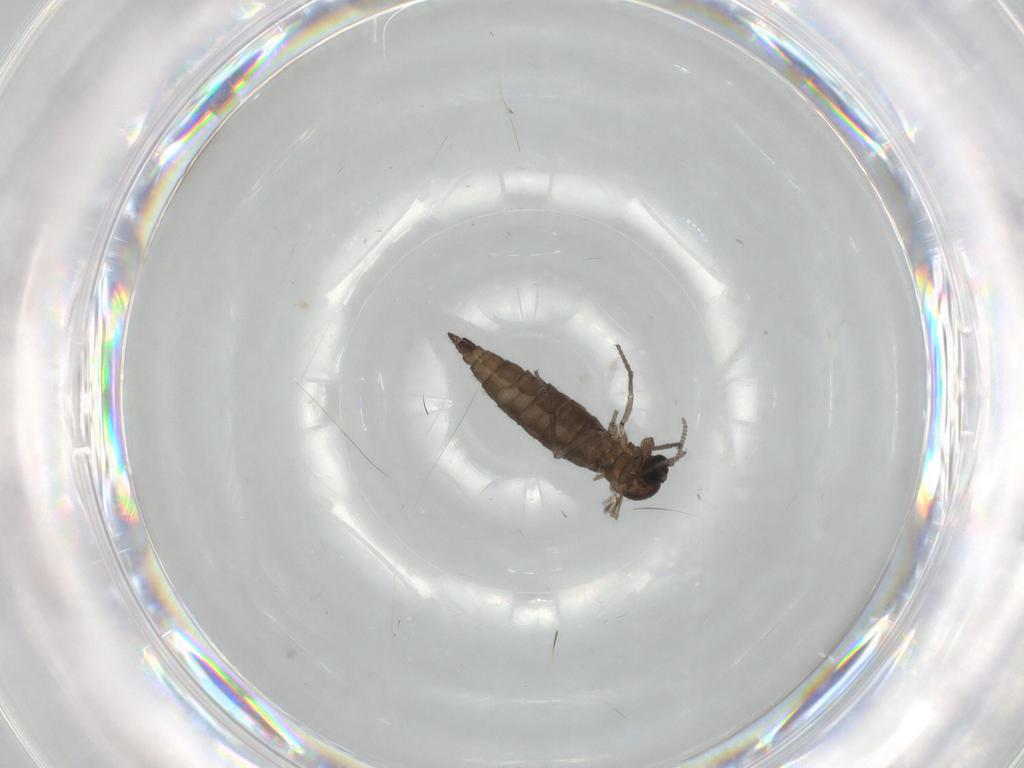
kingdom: Animalia
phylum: Arthropoda
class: Insecta
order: Diptera
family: Sciaridae
